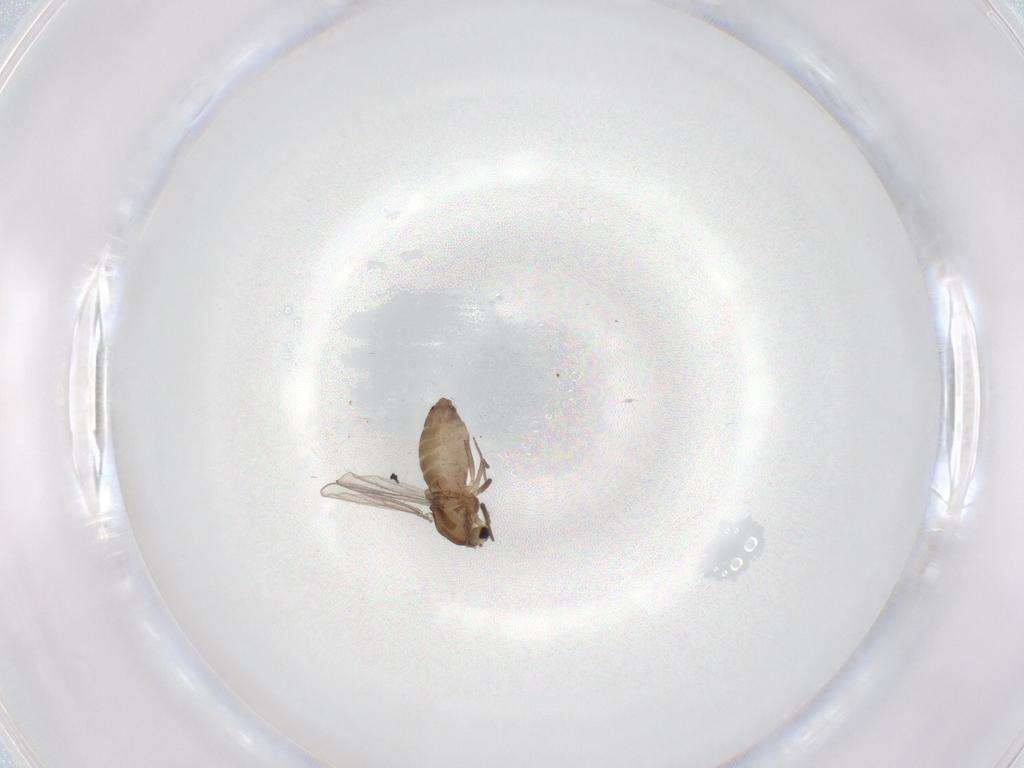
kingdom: Animalia
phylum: Arthropoda
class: Insecta
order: Diptera
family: Chironomidae
